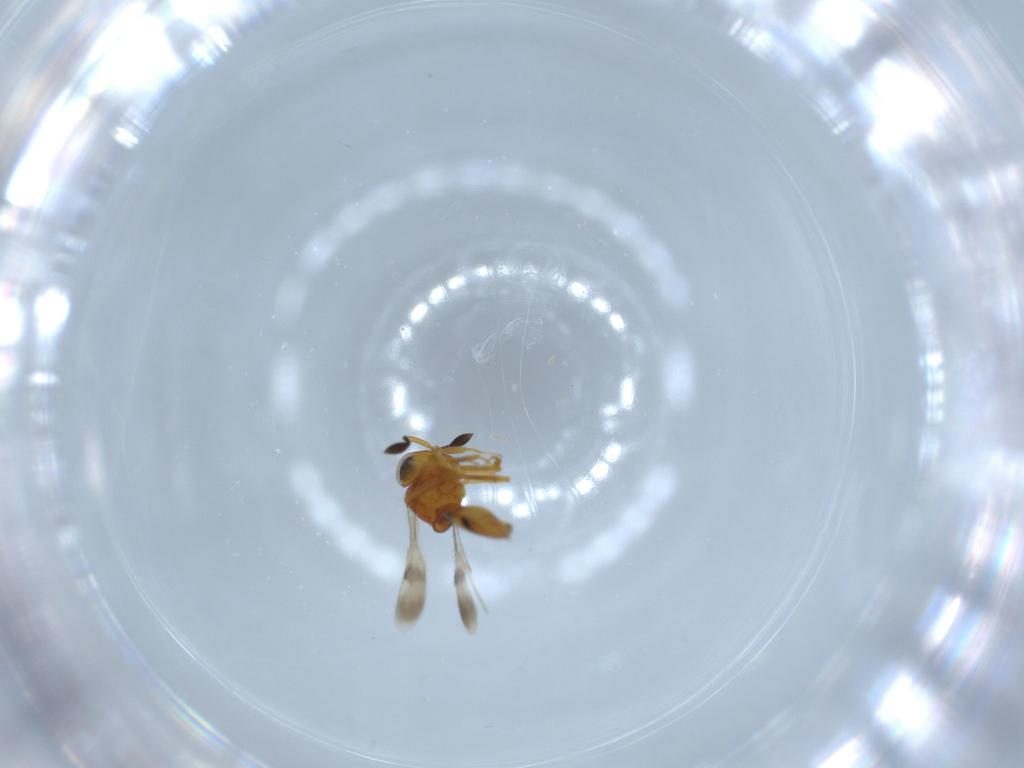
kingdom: Animalia
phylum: Arthropoda
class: Insecta
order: Hymenoptera
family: Scelionidae
